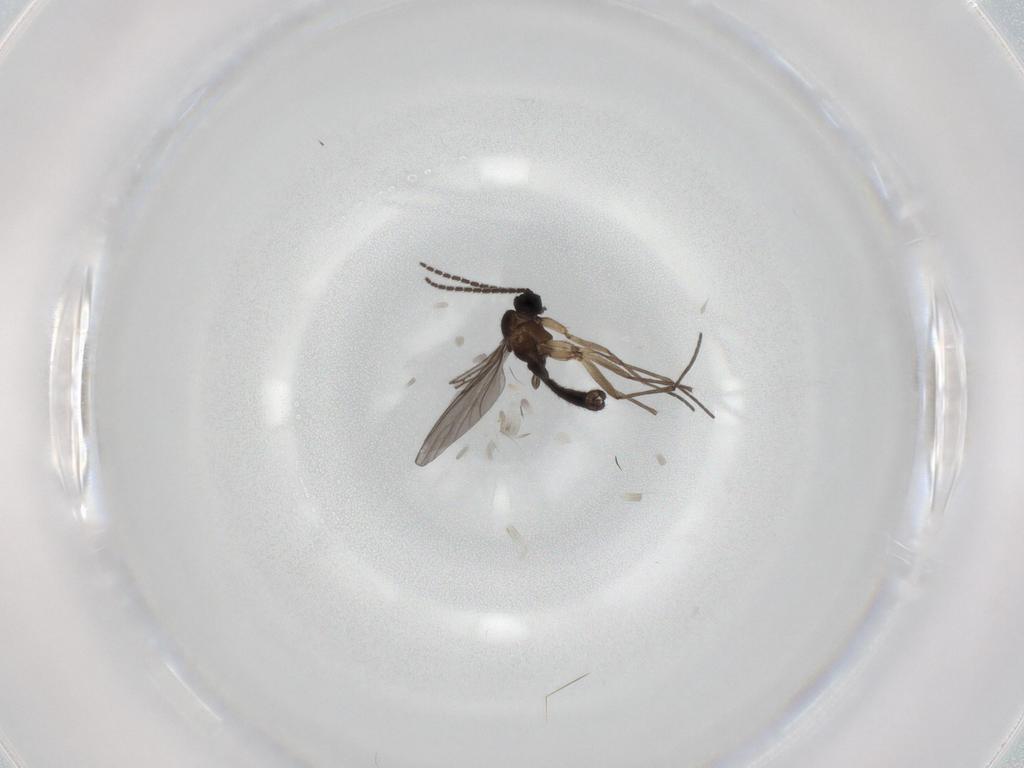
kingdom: Animalia
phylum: Arthropoda
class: Insecta
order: Diptera
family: Sciaridae
